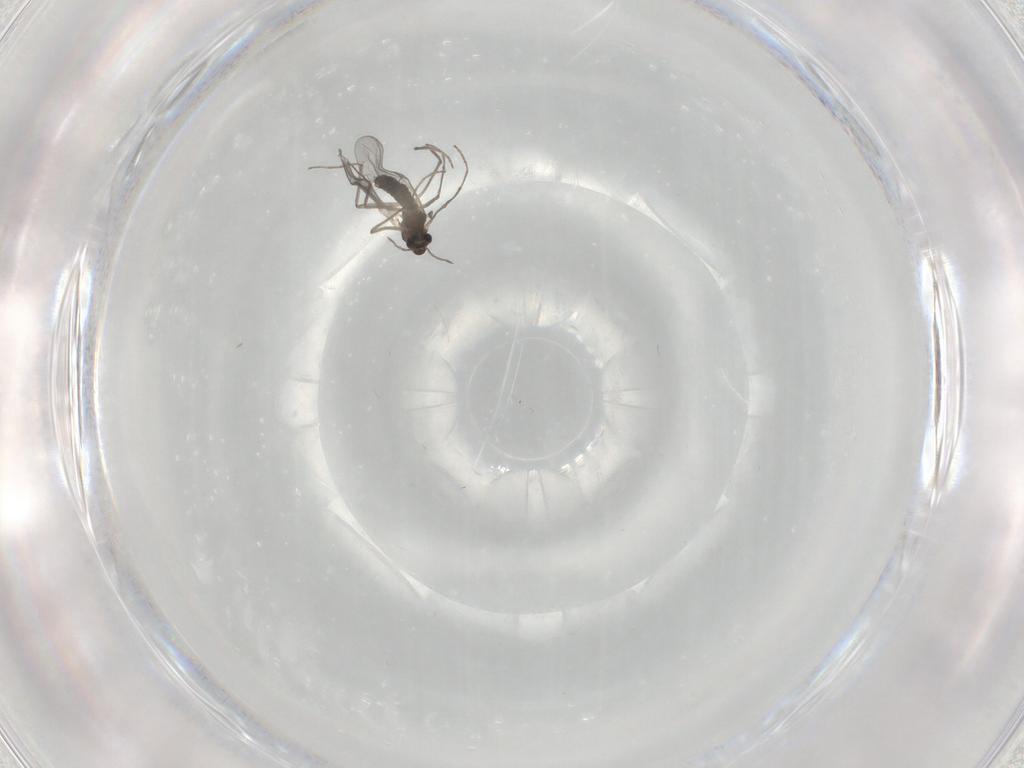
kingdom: Animalia
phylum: Arthropoda
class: Insecta
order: Diptera
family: Chironomidae
